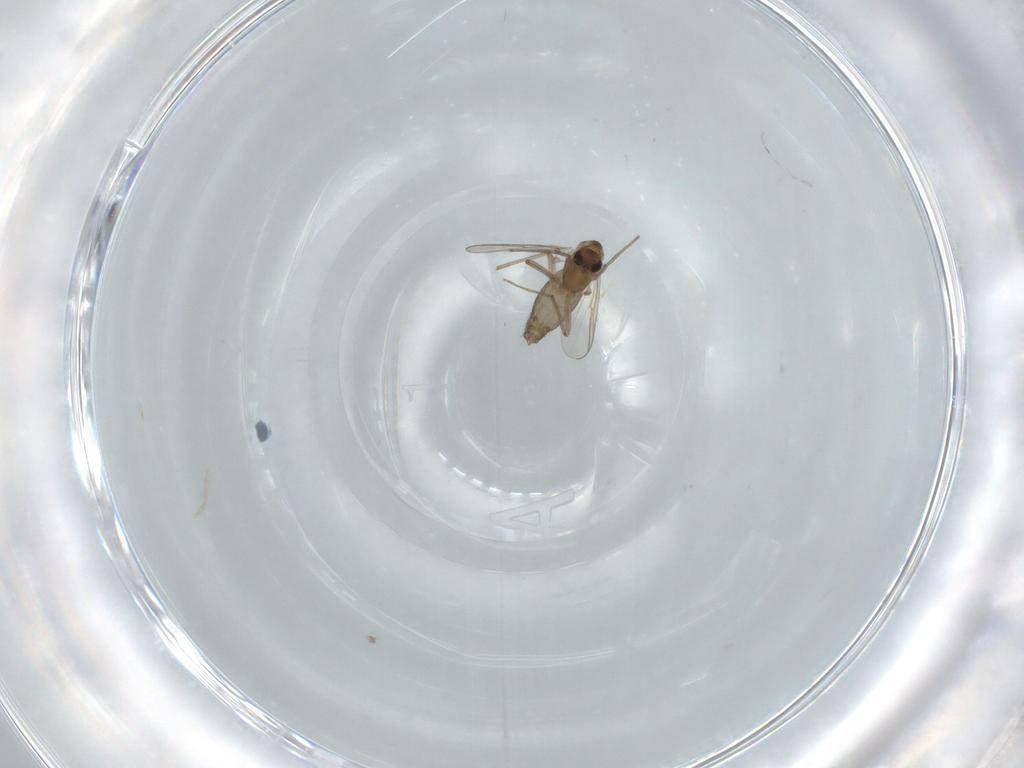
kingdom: Animalia
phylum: Arthropoda
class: Insecta
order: Diptera
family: Chironomidae
